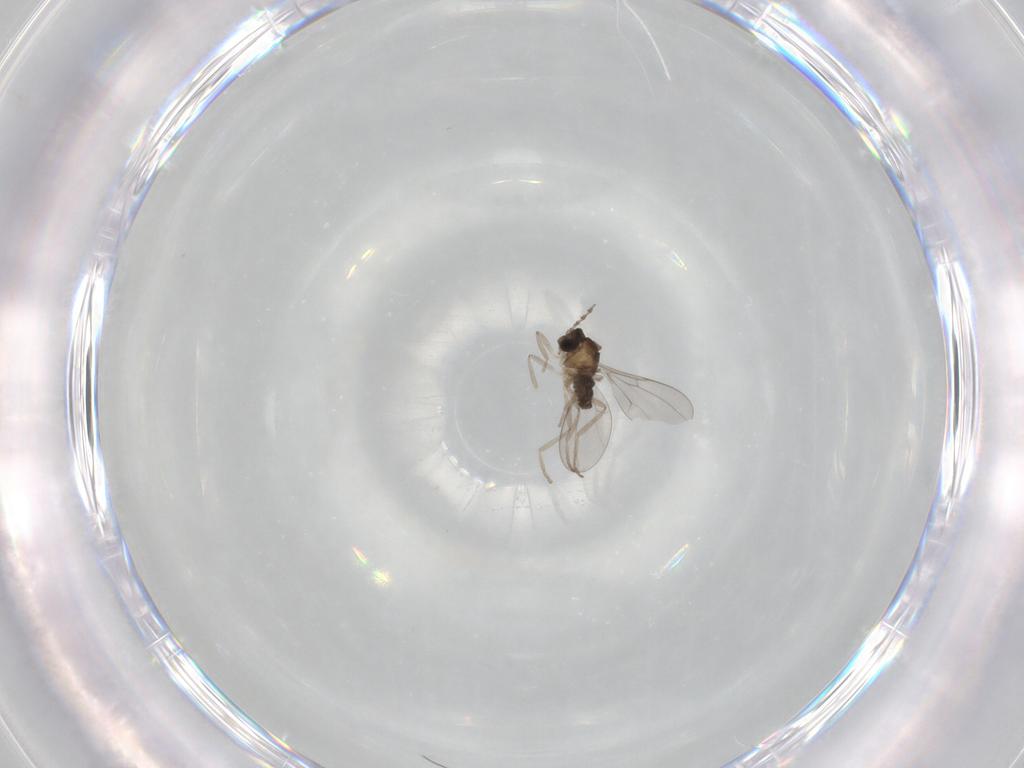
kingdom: Animalia
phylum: Arthropoda
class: Insecta
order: Diptera
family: Cecidomyiidae
